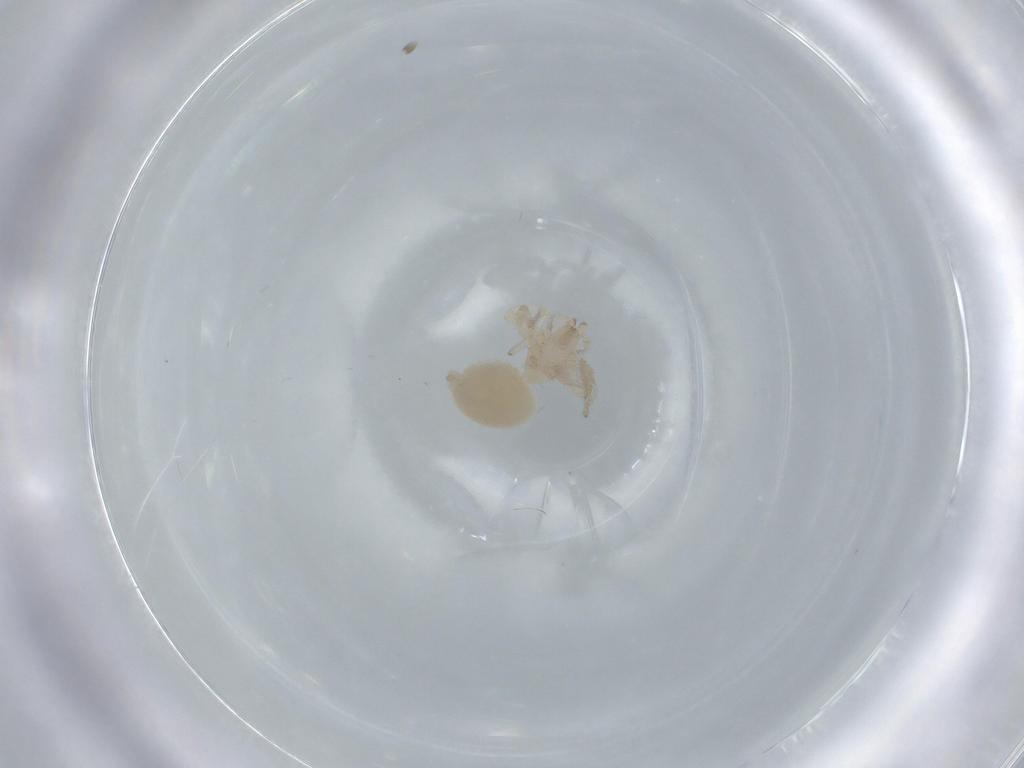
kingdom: Animalia
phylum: Arthropoda
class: Arachnida
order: Araneae
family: Oonopidae
